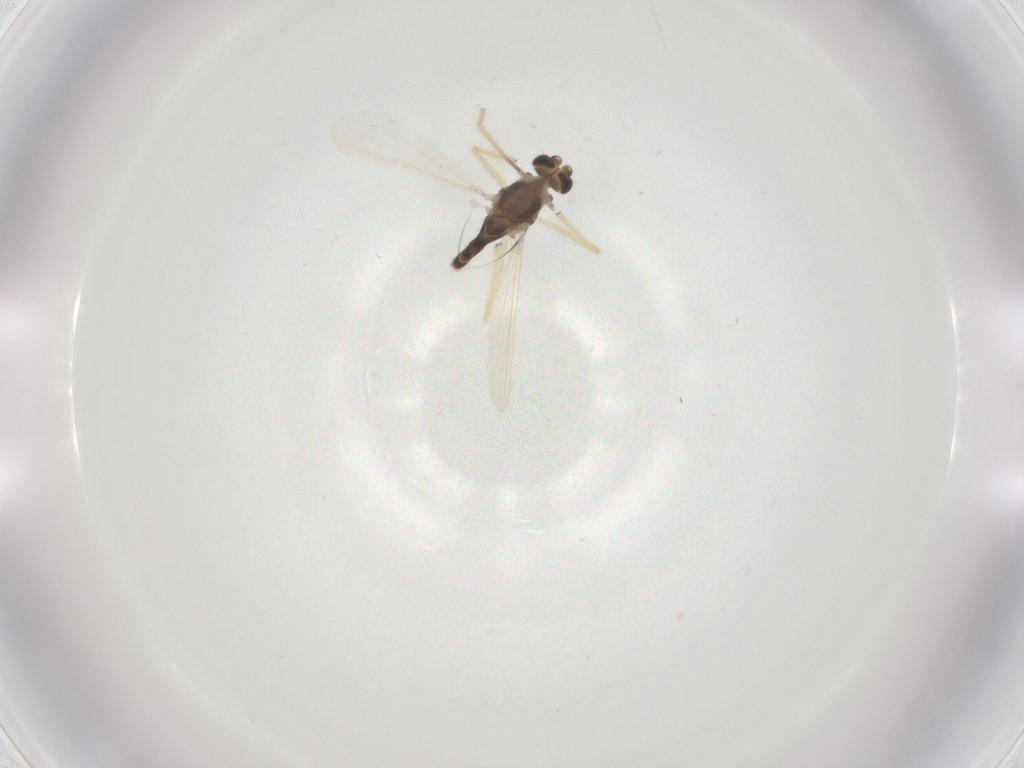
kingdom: Animalia
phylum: Arthropoda
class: Insecta
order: Diptera
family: Chironomidae
